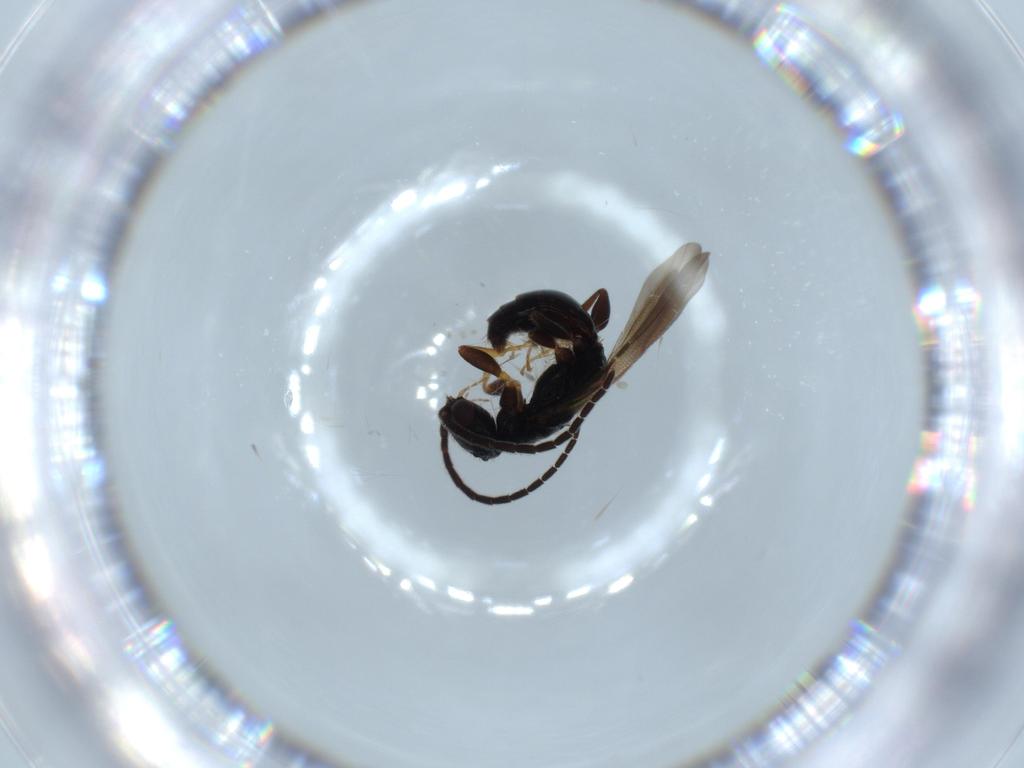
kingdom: Animalia
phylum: Arthropoda
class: Insecta
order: Hymenoptera
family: Bethylidae
